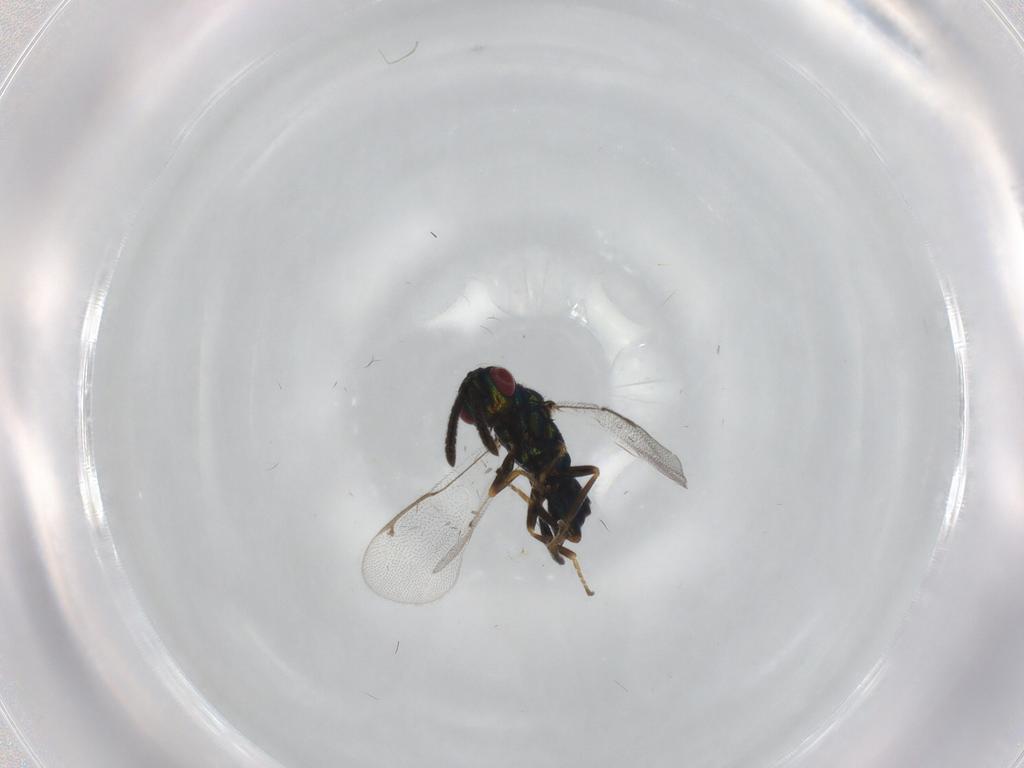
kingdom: Animalia
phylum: Arthropoda
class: Insecta
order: Hymenoptera
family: Torymidae
